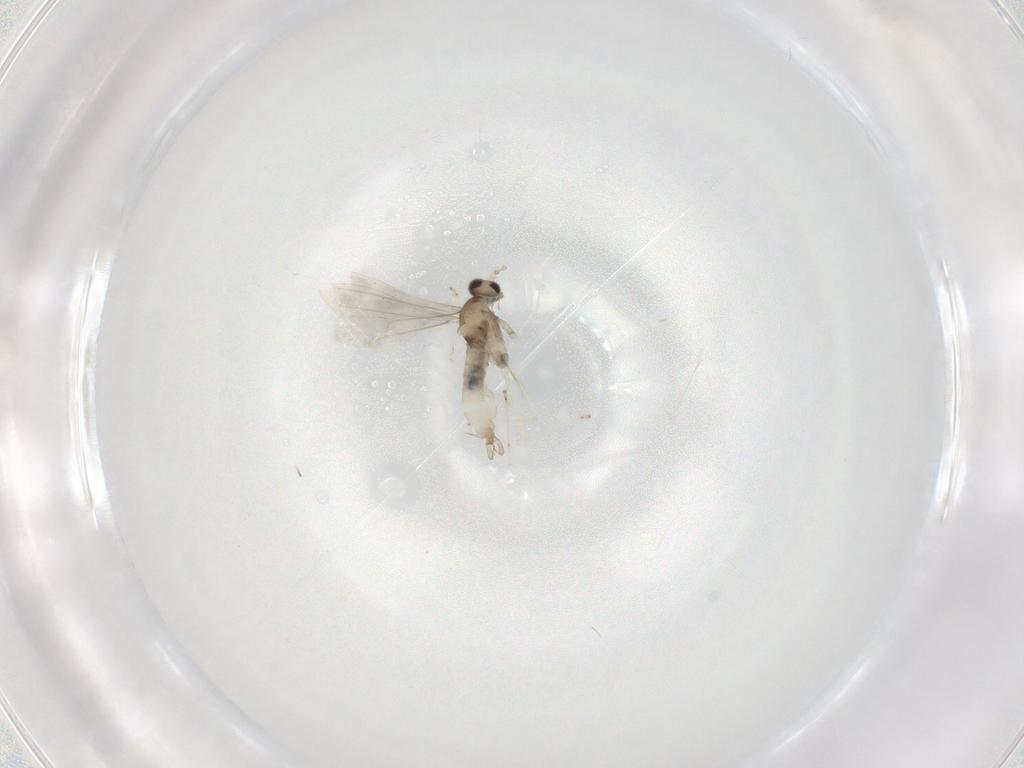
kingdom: Animalia
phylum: Arthropoda
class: Insecta
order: Diptera
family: Cecidomyiidae
